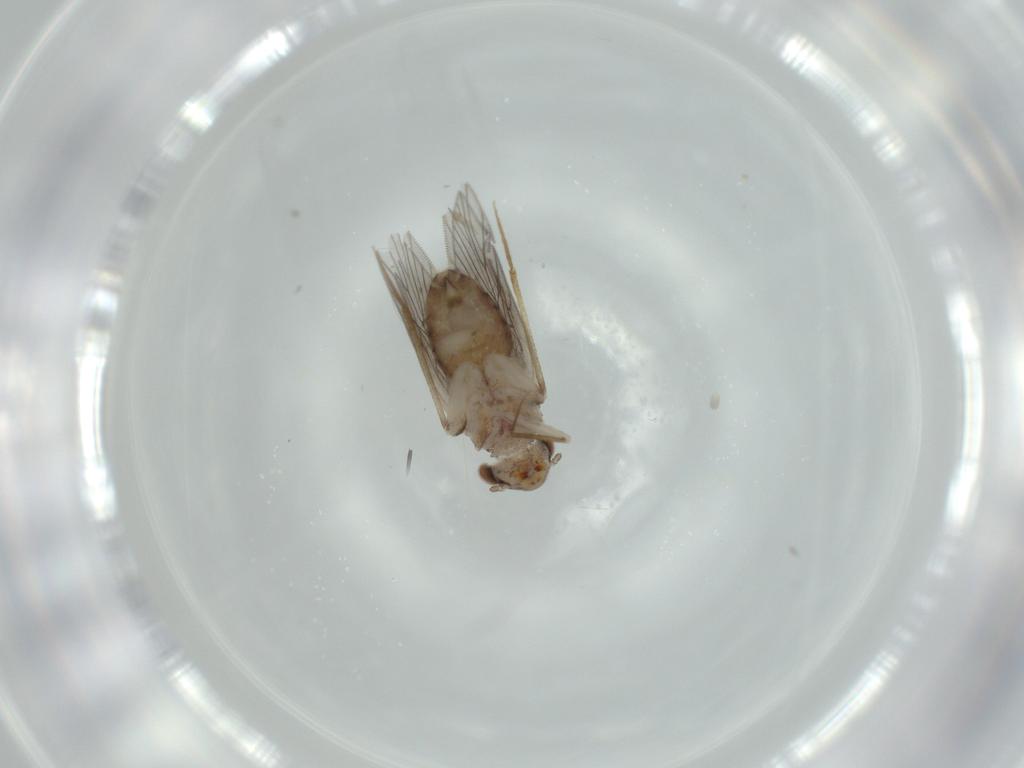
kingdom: Animalia
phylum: Arthropoda
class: Insecta
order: Psocodea
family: Lepidopsocidae
